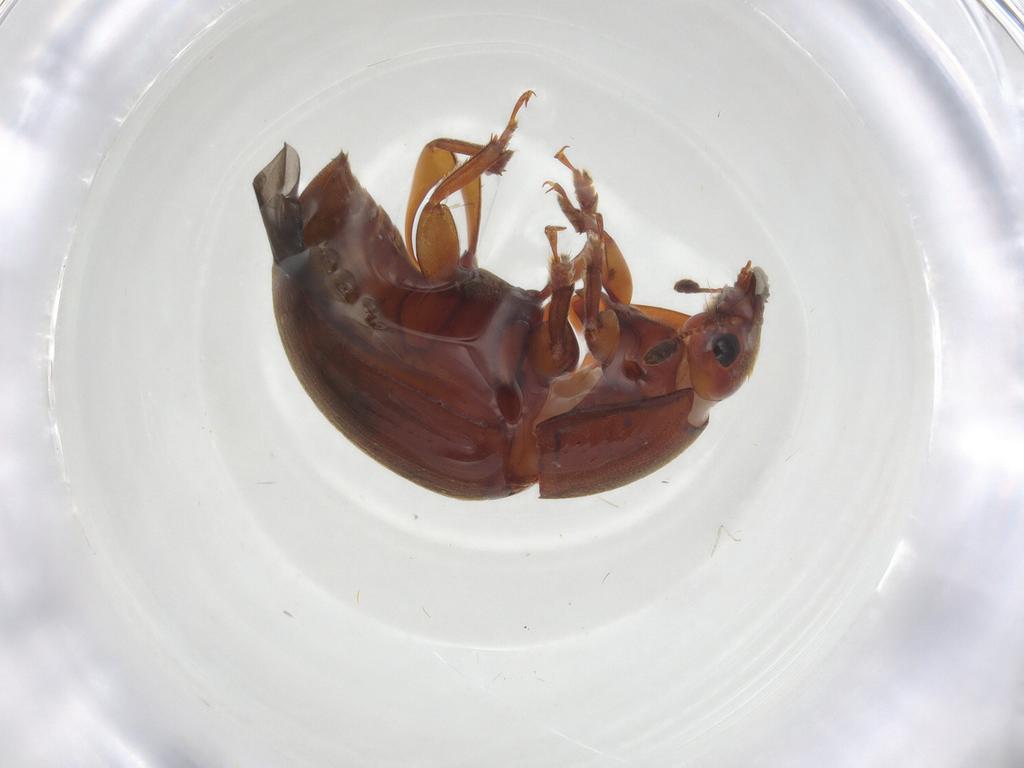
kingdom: Animalia
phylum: Arthropoda
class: Insecta
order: Coleoptera
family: Nitidulidae
